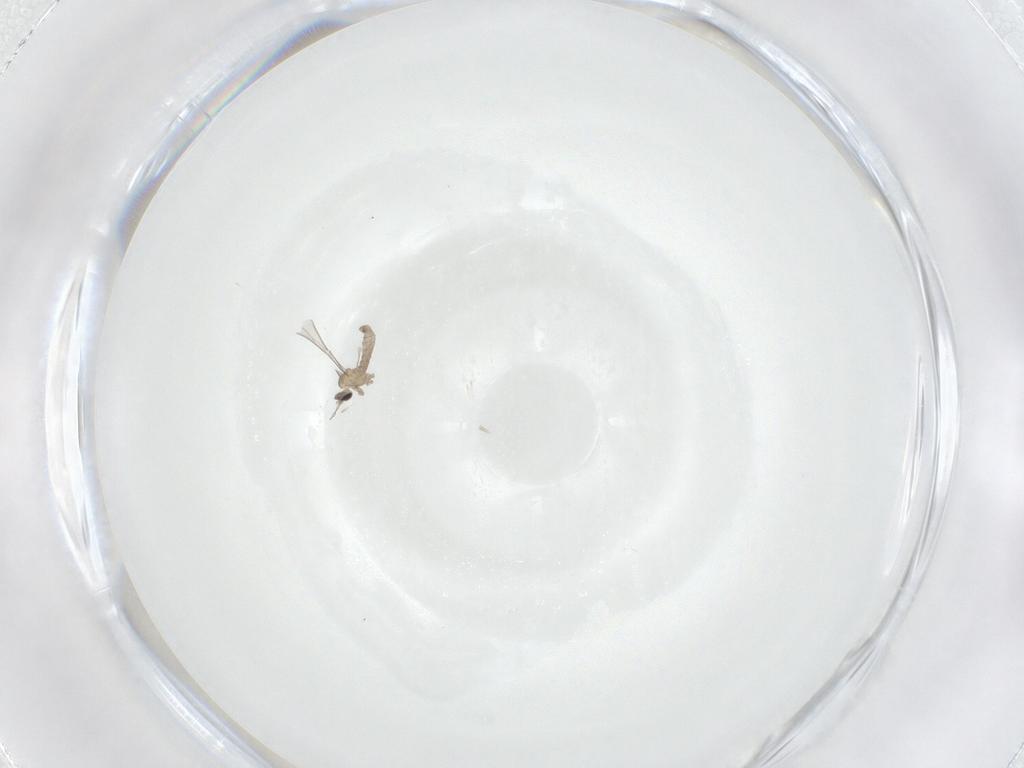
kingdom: Animalia
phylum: Arthropoda
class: Insecta
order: Diptera
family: Cecidomyiidae
